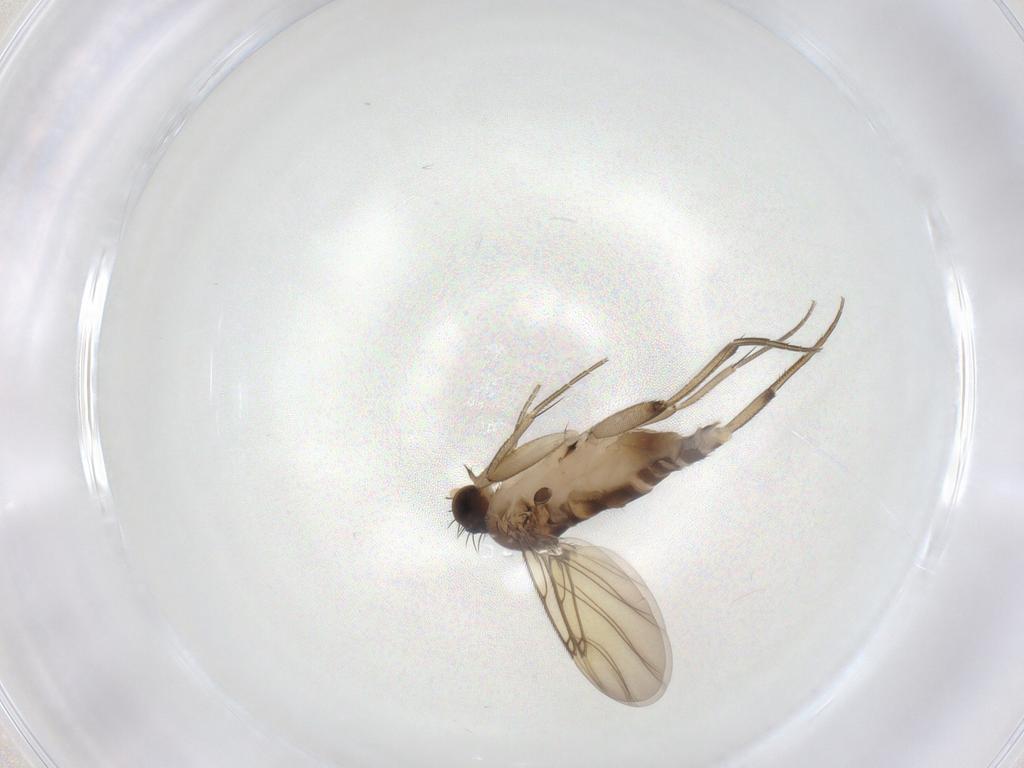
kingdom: Animalia
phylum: Arthropoda
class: Insecta
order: Diptera
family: Phoridae
